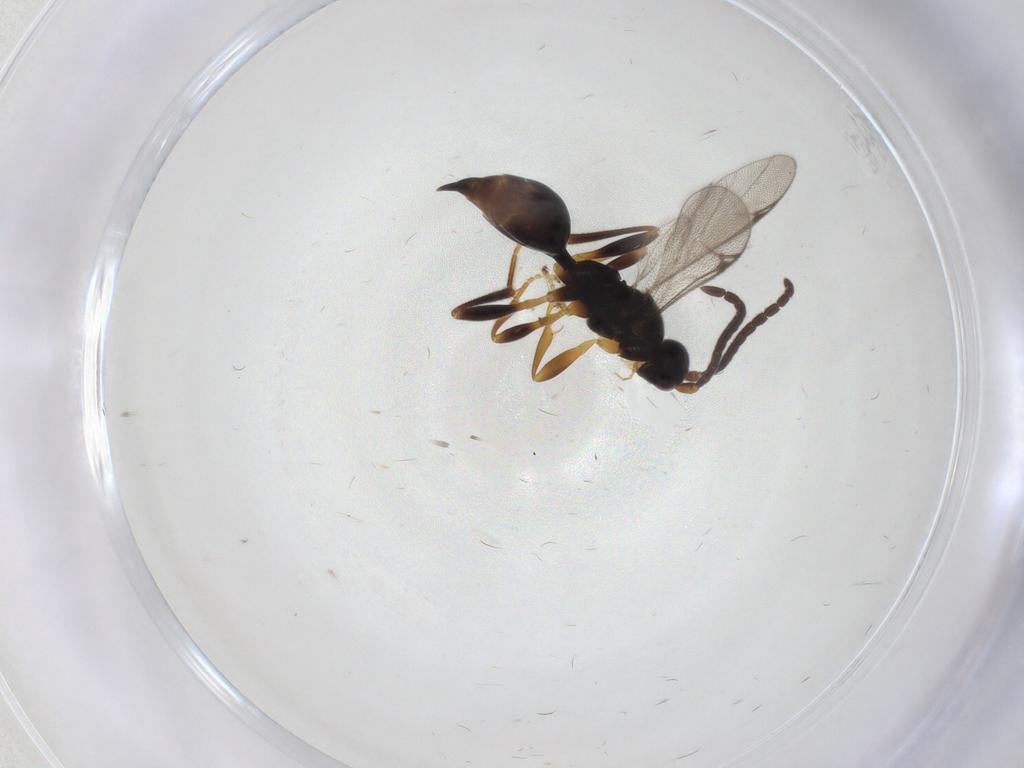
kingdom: Animalia
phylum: Arthropoda
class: Insecta
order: Hymenoptera
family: Proctotrupidae
